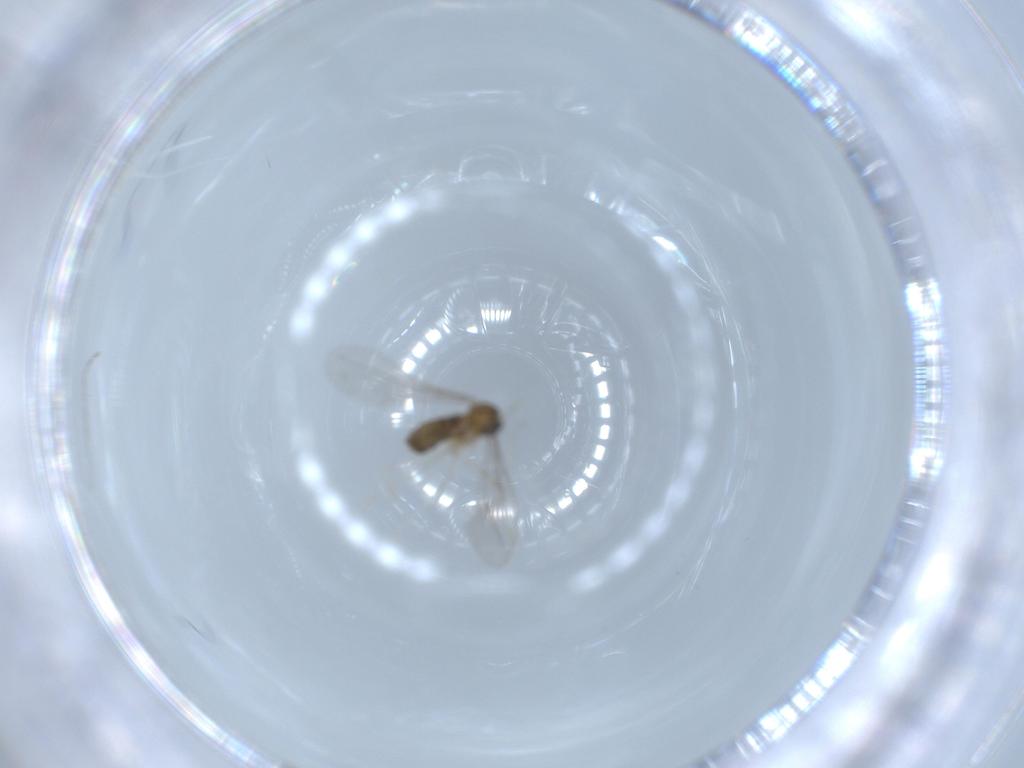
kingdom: Animalia
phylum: Arthropoda
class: Insecta
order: Diptera
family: Cecidomyiidae
